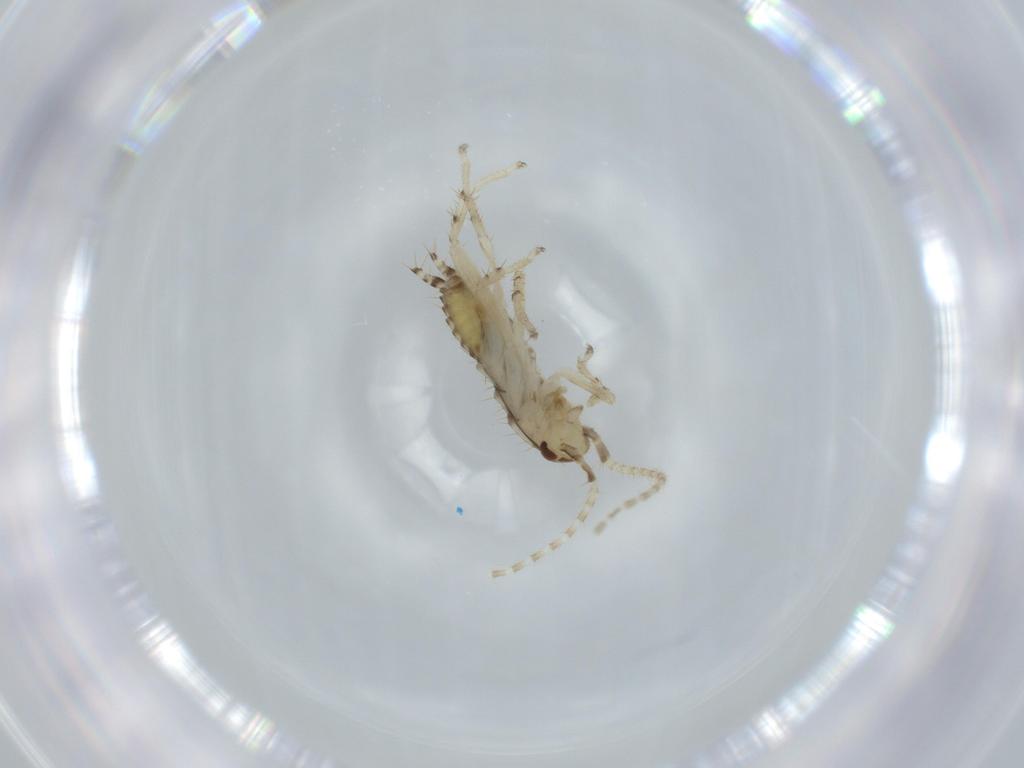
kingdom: Animalia
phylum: Arthropoda
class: Insecta
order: Blattodea
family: Ectobiidae
